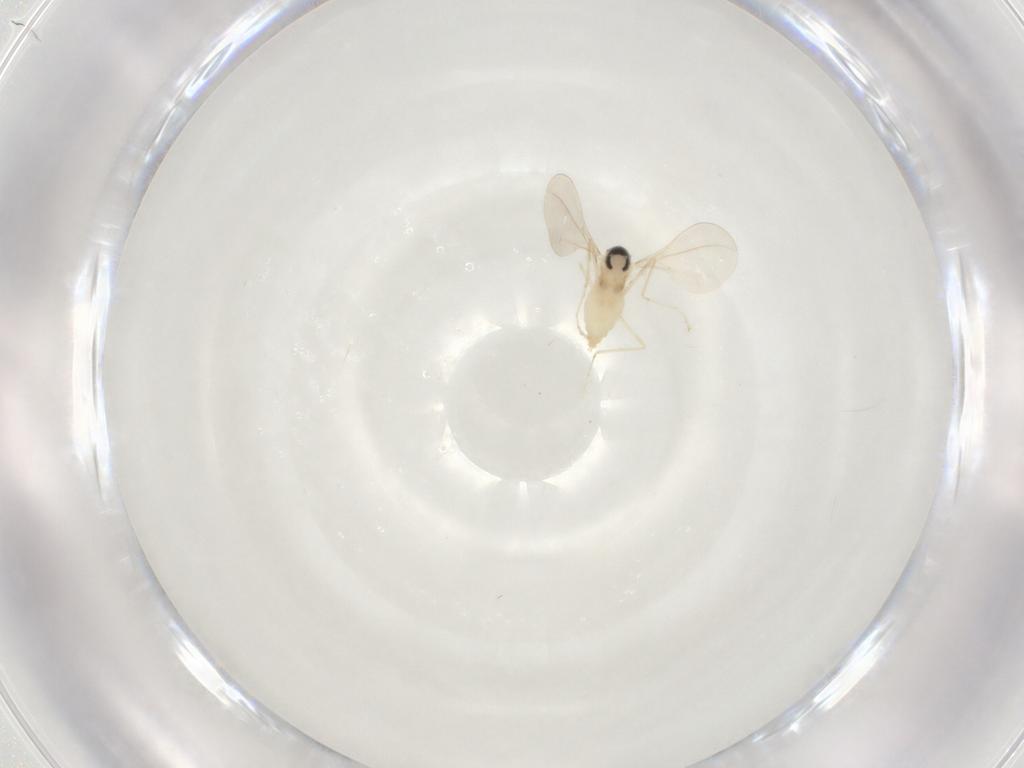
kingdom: Animalia
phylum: Arthropoda
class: Insecta
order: Diptera
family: Cecidomyiidae
